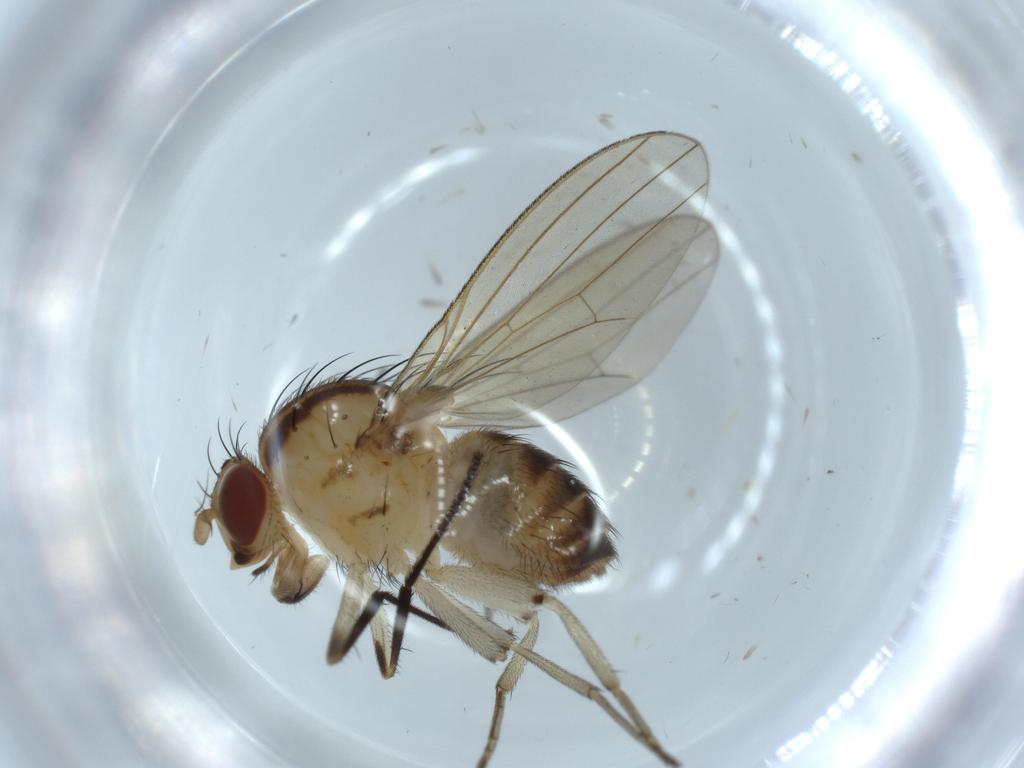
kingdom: Animalia
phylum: Arthropoda
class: Insecta
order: Diptera
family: Cecidomyiidae
